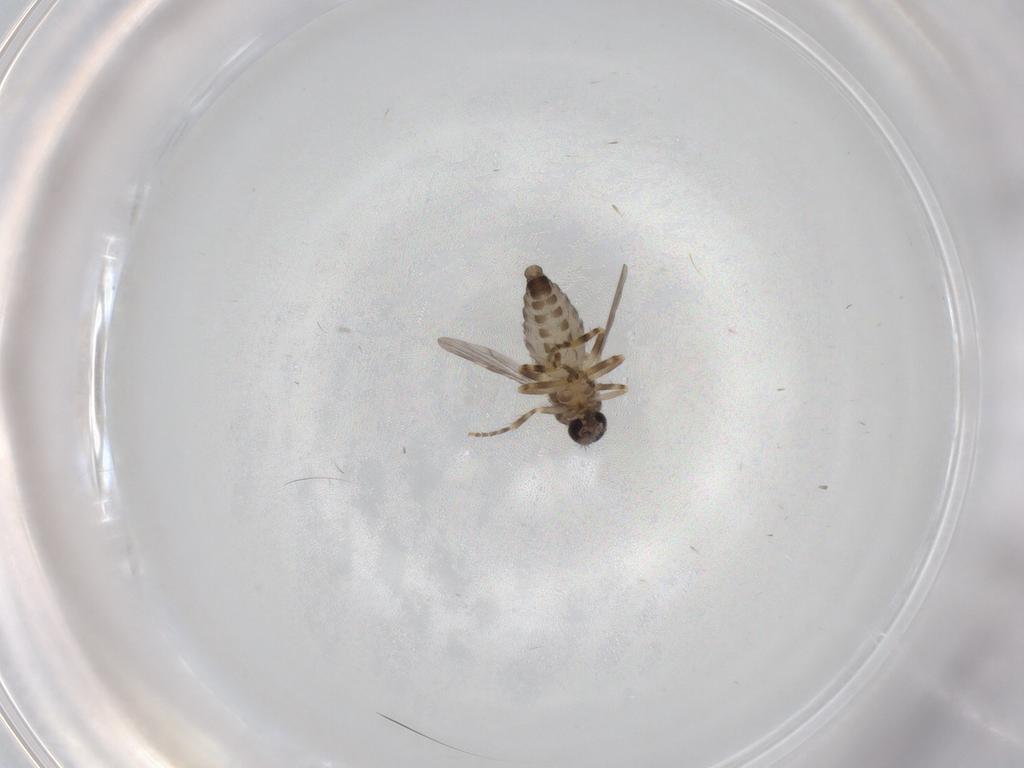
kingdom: Animalia
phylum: Arthropoda
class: Insecta
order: Diptera
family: Ceratopogonidae
